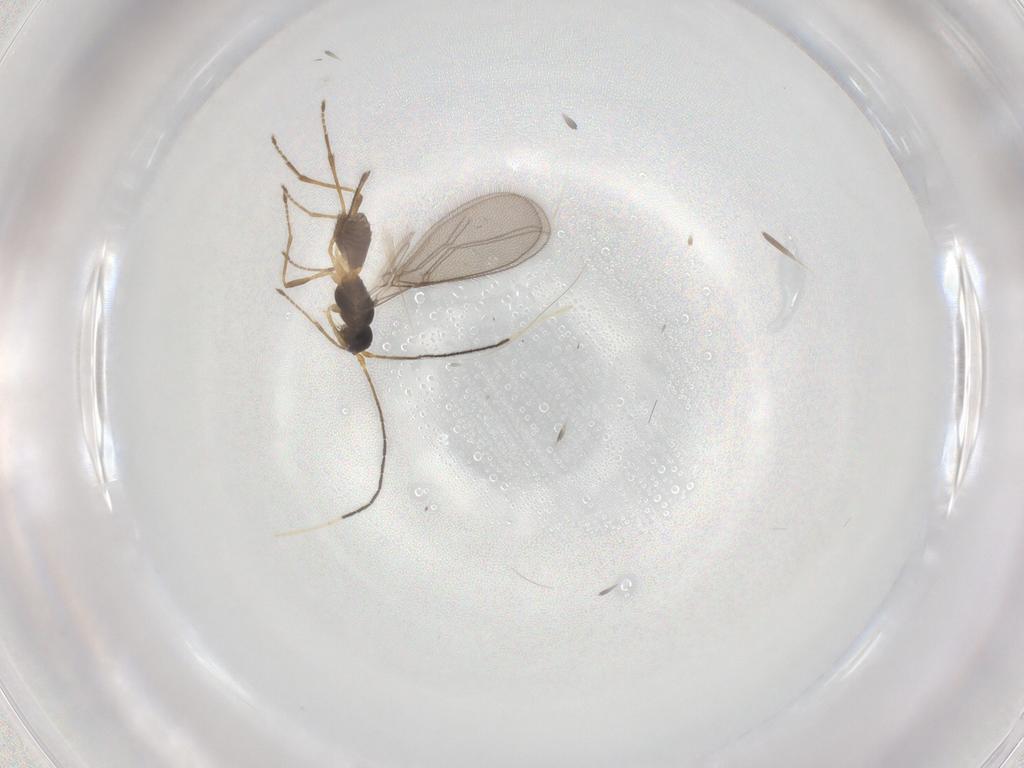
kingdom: Animalia
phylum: Arthropoda
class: Insecta
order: Hymenoptera
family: Braconidae
